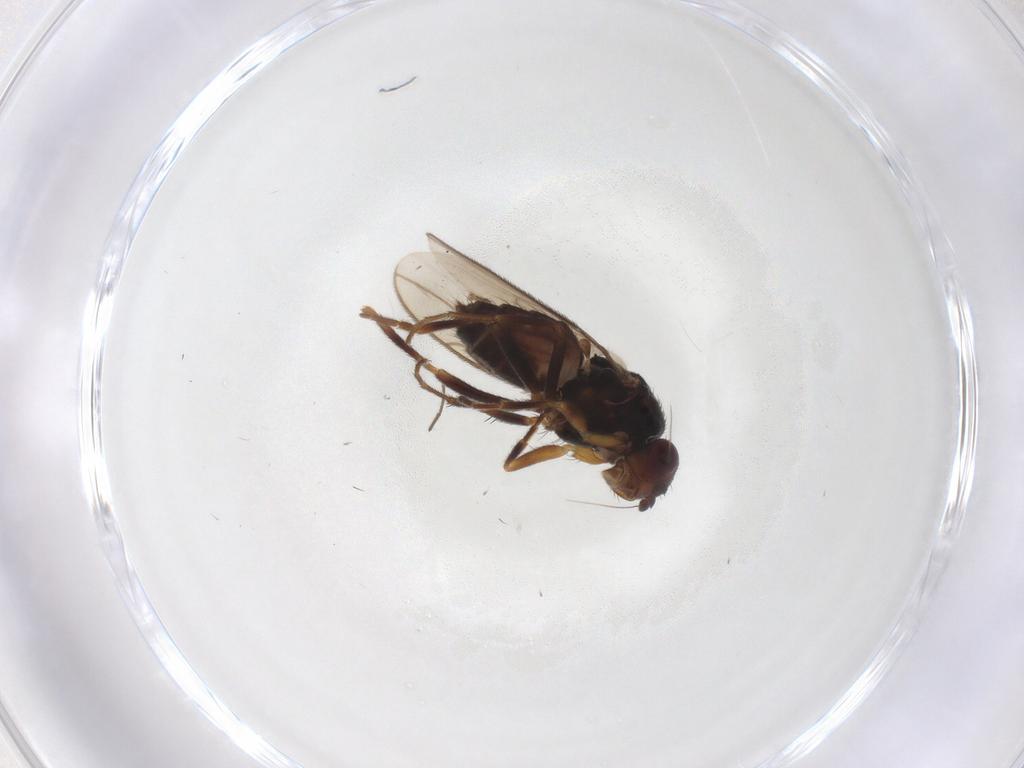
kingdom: Animalia
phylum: Arthropoda
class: Insecta
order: Diptera
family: Sphaeroceridae
